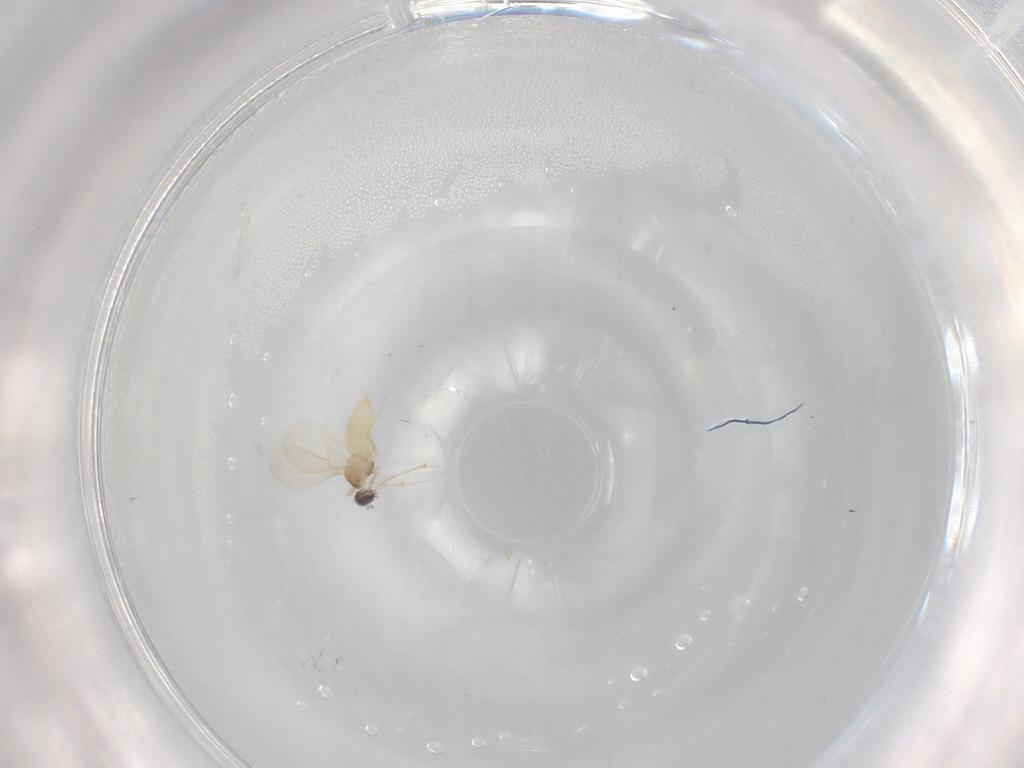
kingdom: Animalia
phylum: Arthropoda
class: Insecta
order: Diptera
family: Cecidomyiidae
